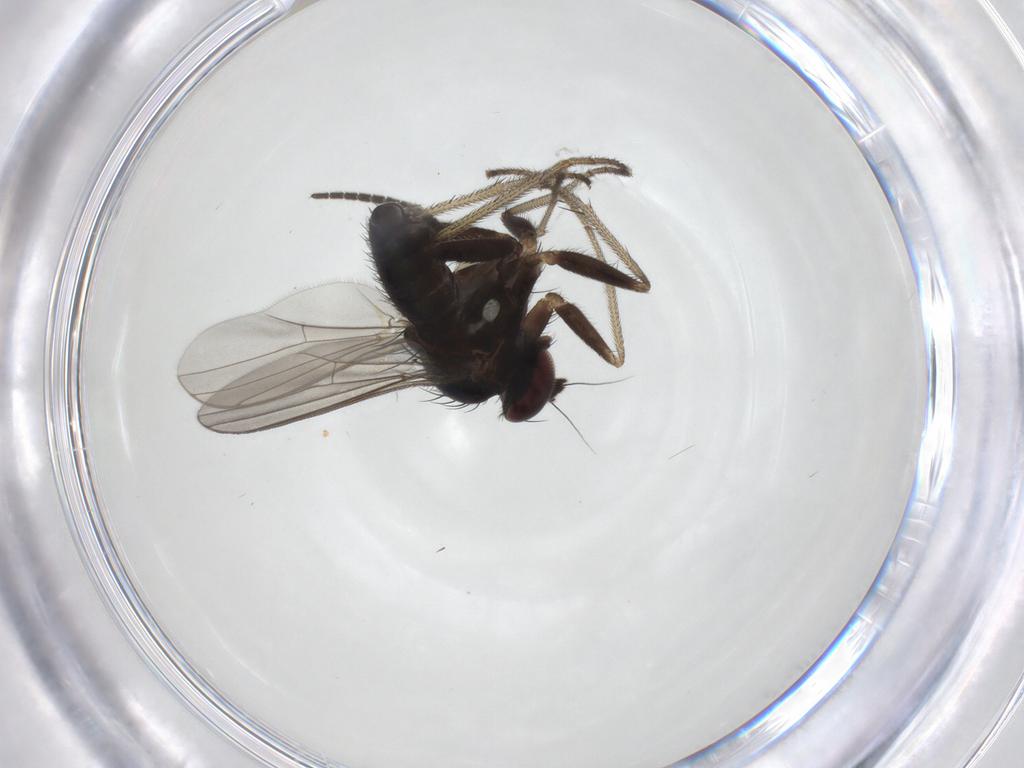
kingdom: Animalia
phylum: Arthropoda
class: Insecta
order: Diptera
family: Dolichopodidae
